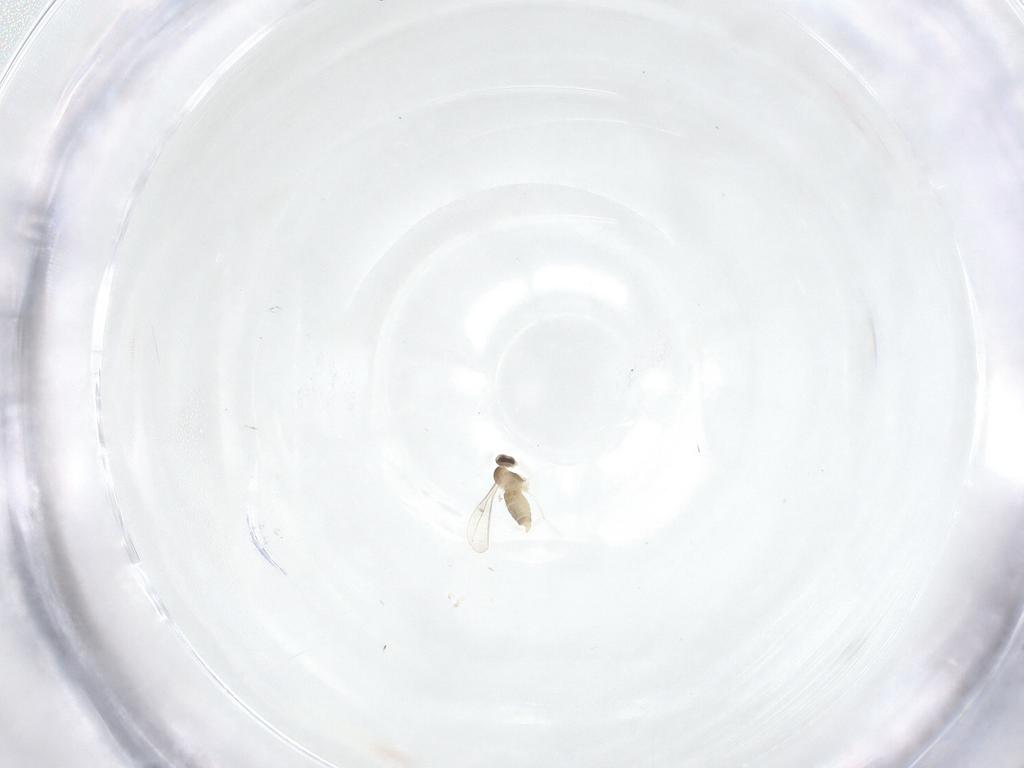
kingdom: Animalia
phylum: Arthropoda
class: Insecta
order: Diptera
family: Cecidomyiidae
